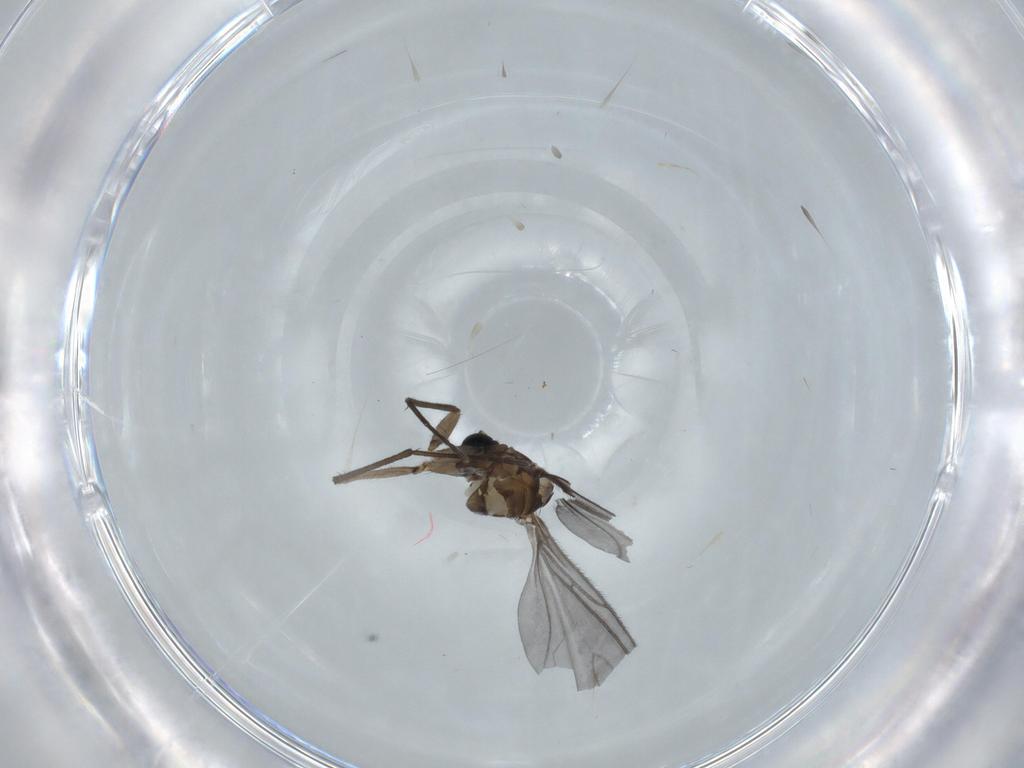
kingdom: Animalia
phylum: Arthropoda
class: Insecta
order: Diptera
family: Sciaridae
